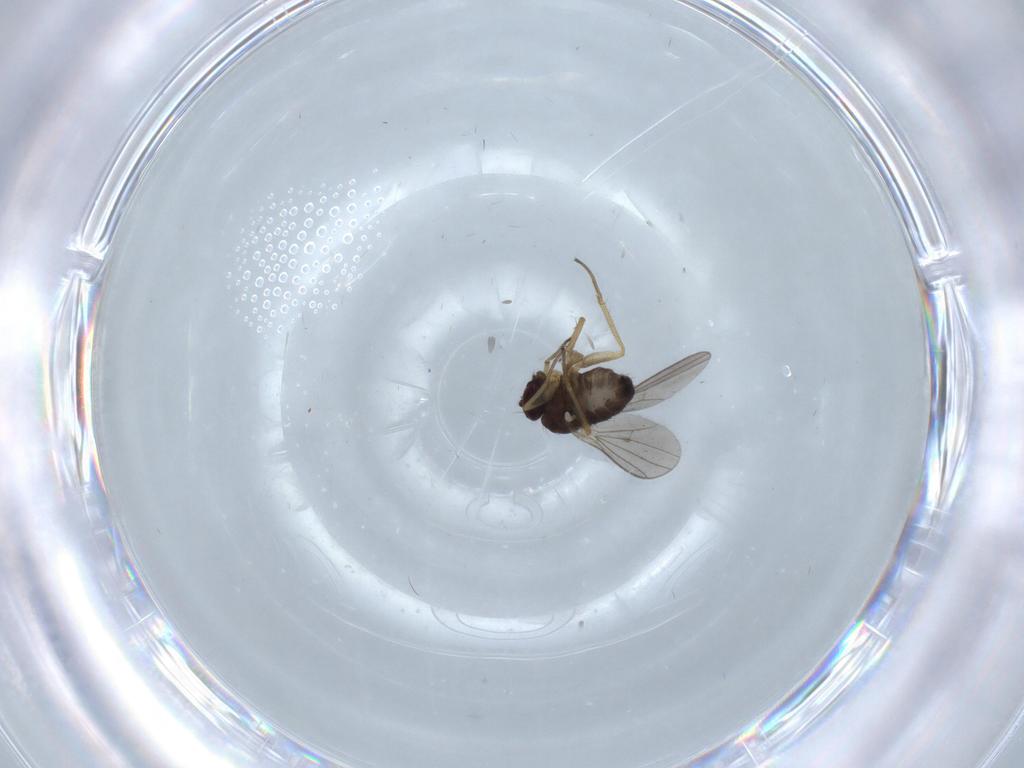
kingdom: Animalia
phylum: Arthropoda
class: Insecta
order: Diptera
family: Dolichopodidae
